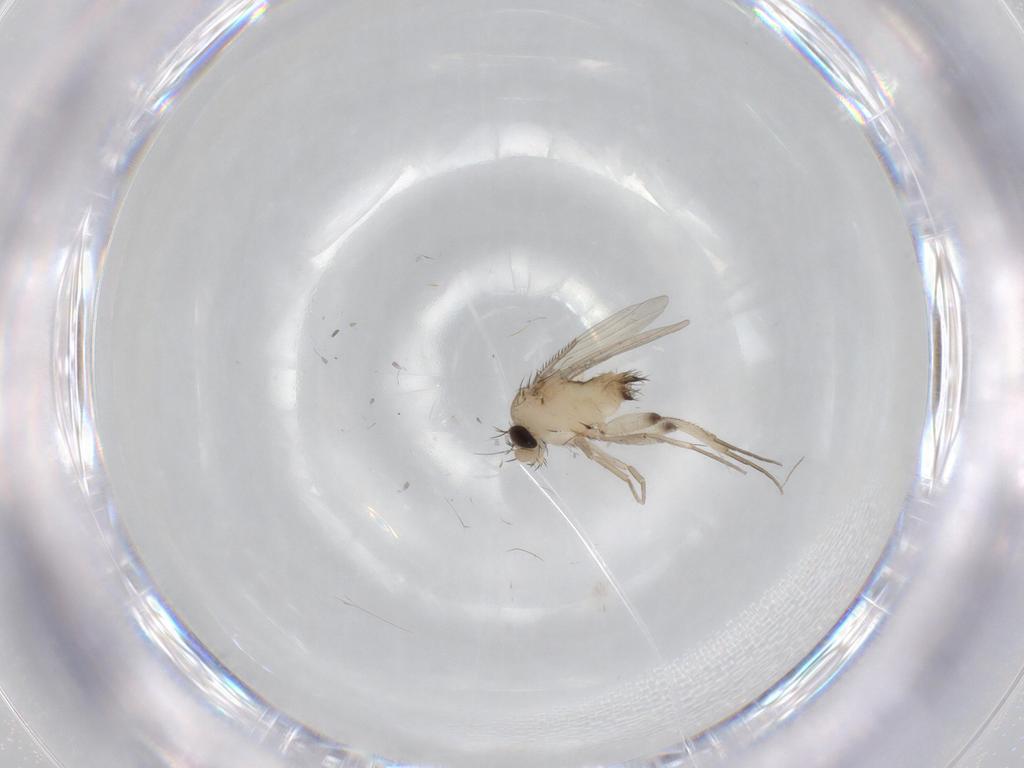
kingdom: Animalia
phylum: Arthropoda
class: Insecta
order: Diptera
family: Phoridae
